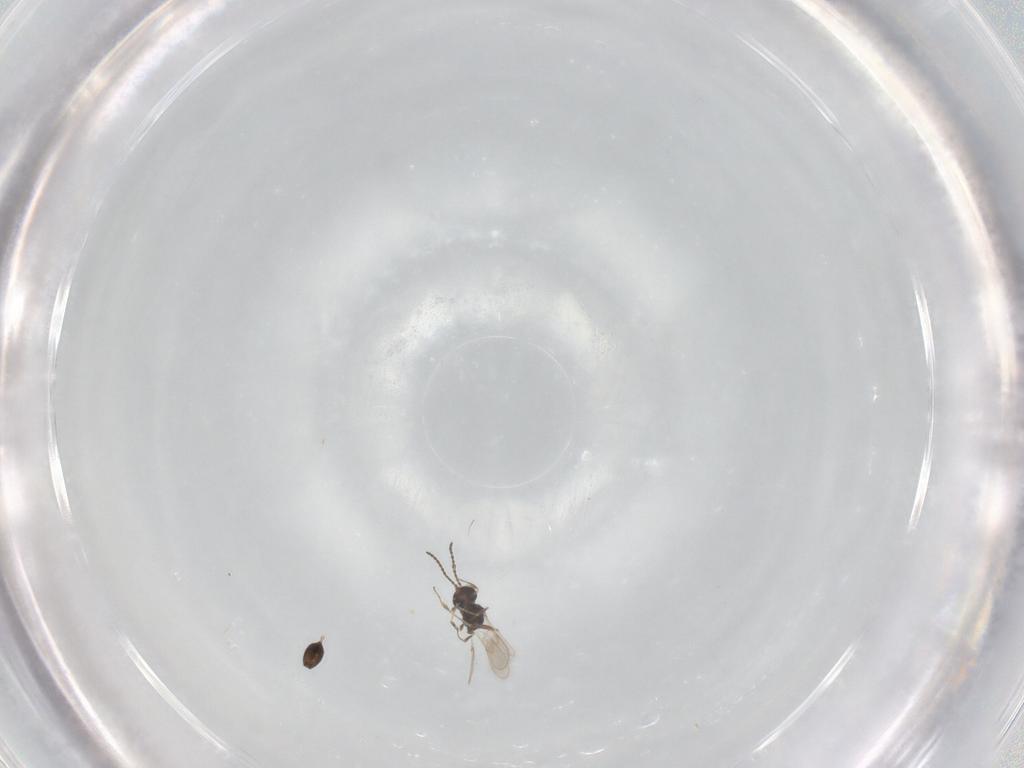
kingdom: Animalia
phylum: Arthropoda
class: Insecta
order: Hymenoptera
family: Scelionidae
